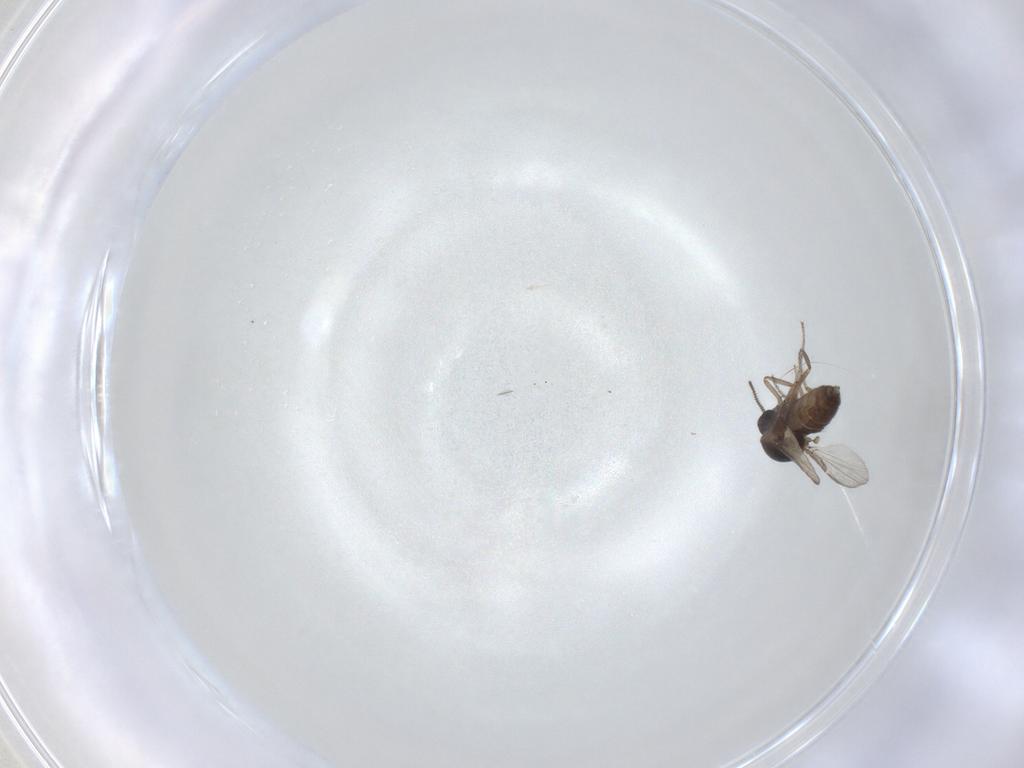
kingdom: Animalia
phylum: Arthropoda
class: Insecta
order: Diptera
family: Ceratopogonidae
